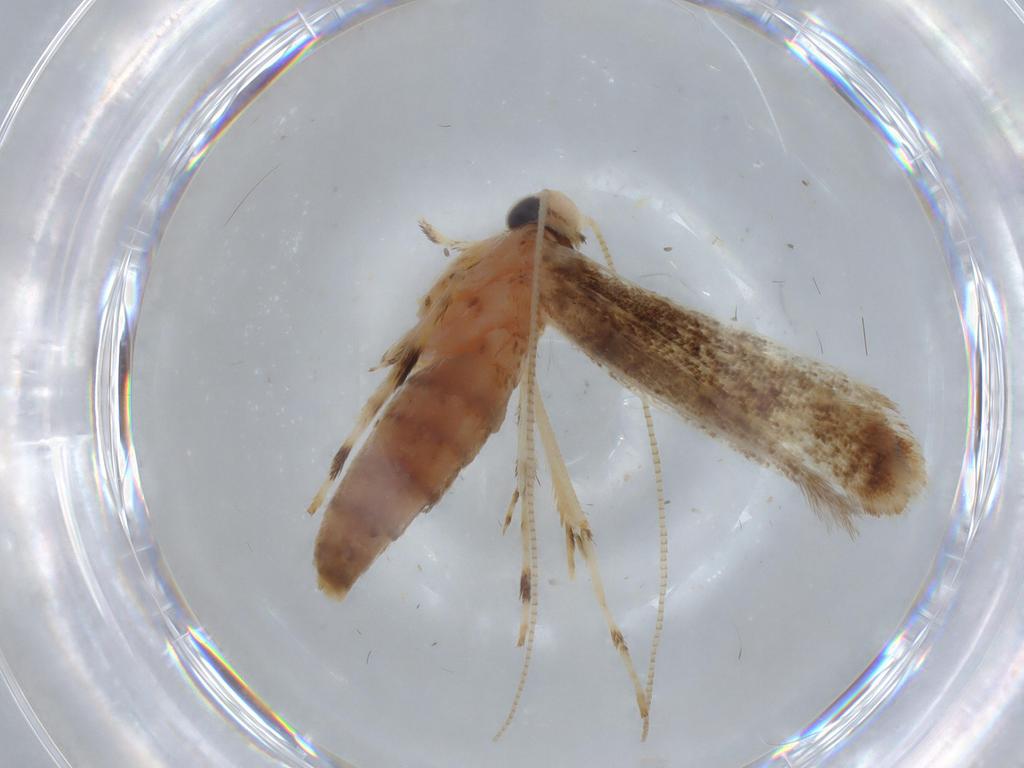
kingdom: Animalia
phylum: Arthropoda
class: Insecta
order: Lepidoptera
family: Gracillariidae
